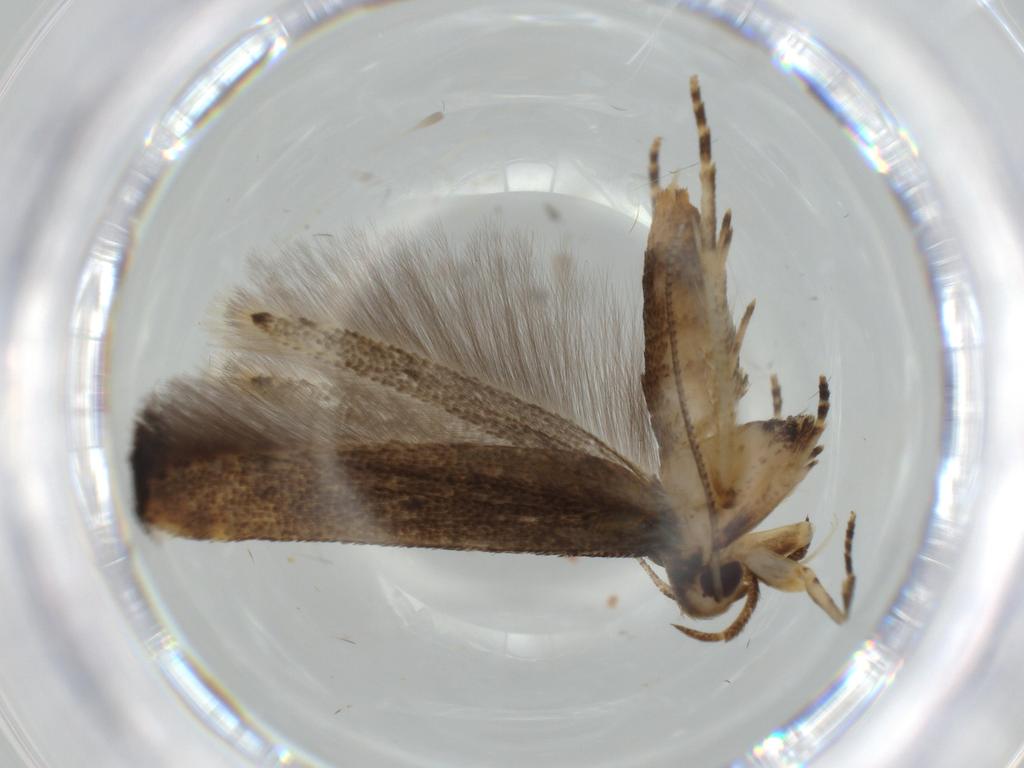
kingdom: Animalia
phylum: Arthropoda
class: Insecta
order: Lepidoptera
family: Cosmopterigidae
